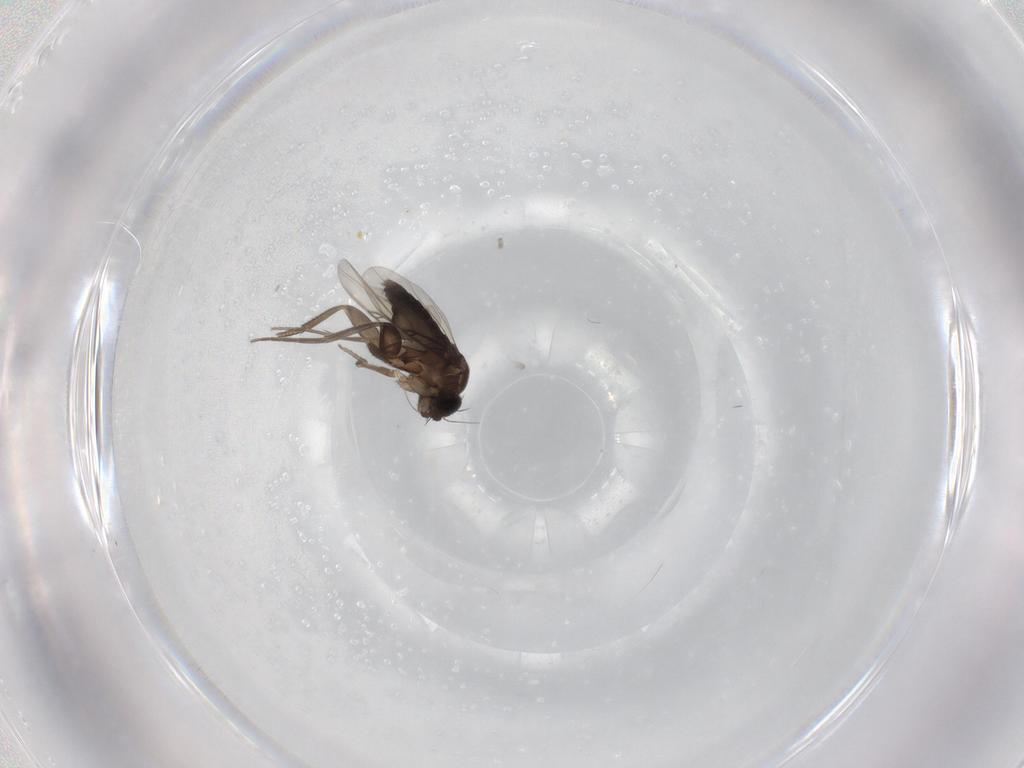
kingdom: Animalia
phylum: Arthropoda
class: Insecta
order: Diptera
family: Phoridae
